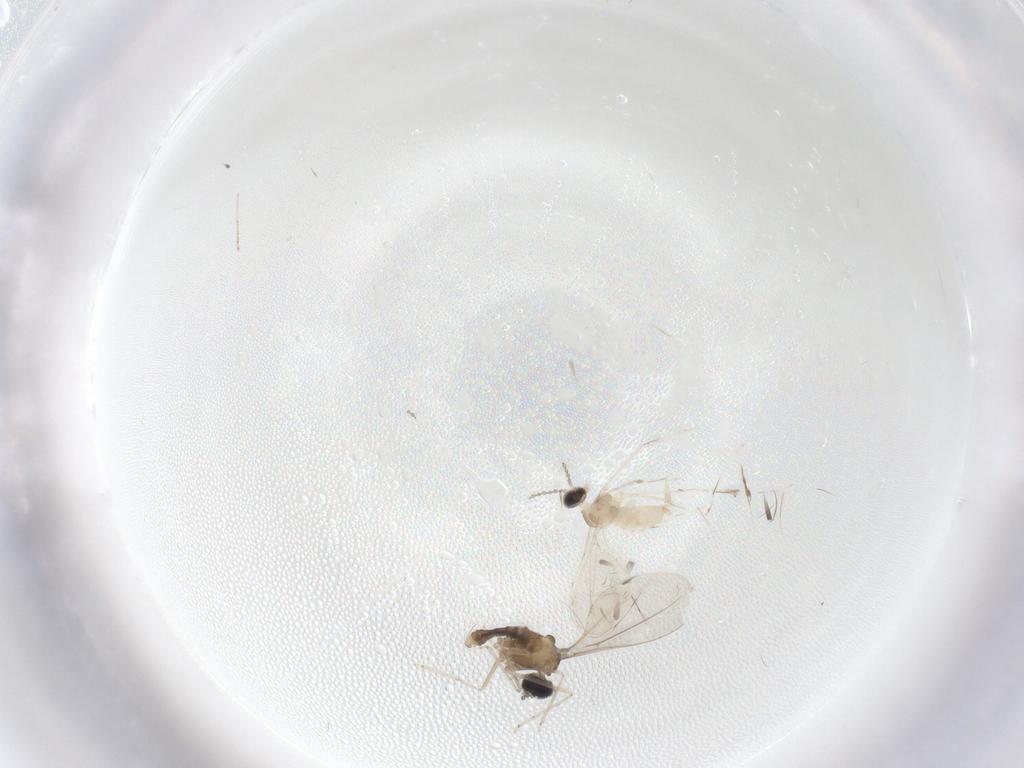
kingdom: Animalia
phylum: Arthropoda
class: Insecta
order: Diptera
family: Cecidomyiidae
